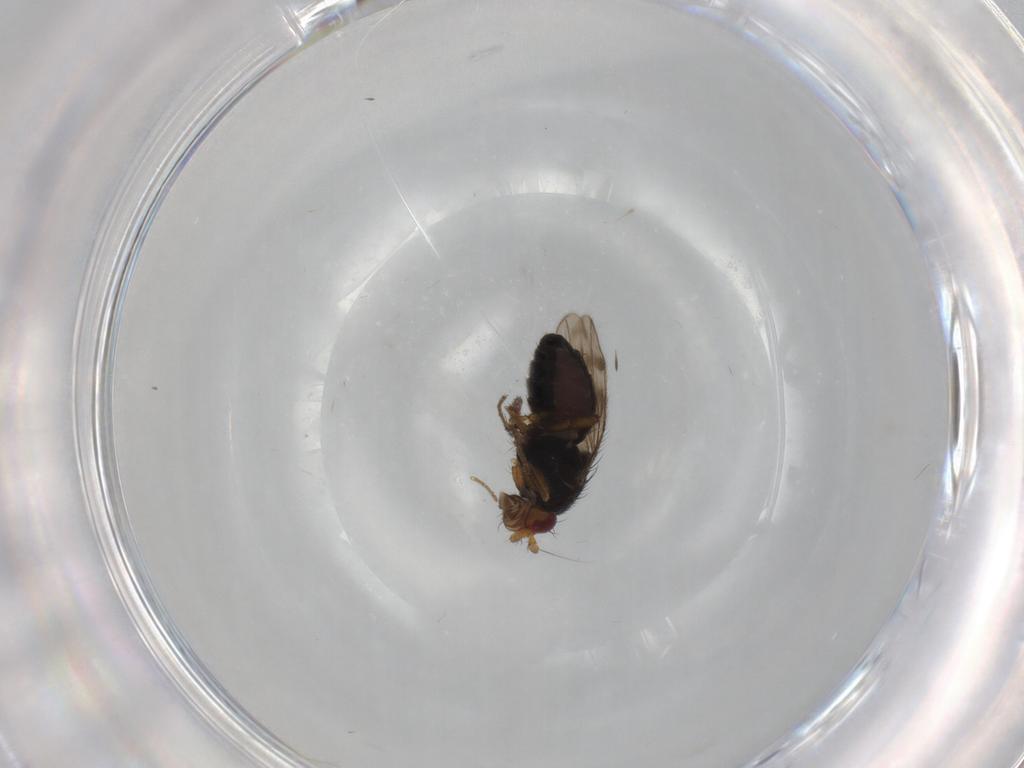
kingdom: Animalia
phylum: Arthropoda
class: Insecta
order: Diptera
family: Sphaeroceridae
